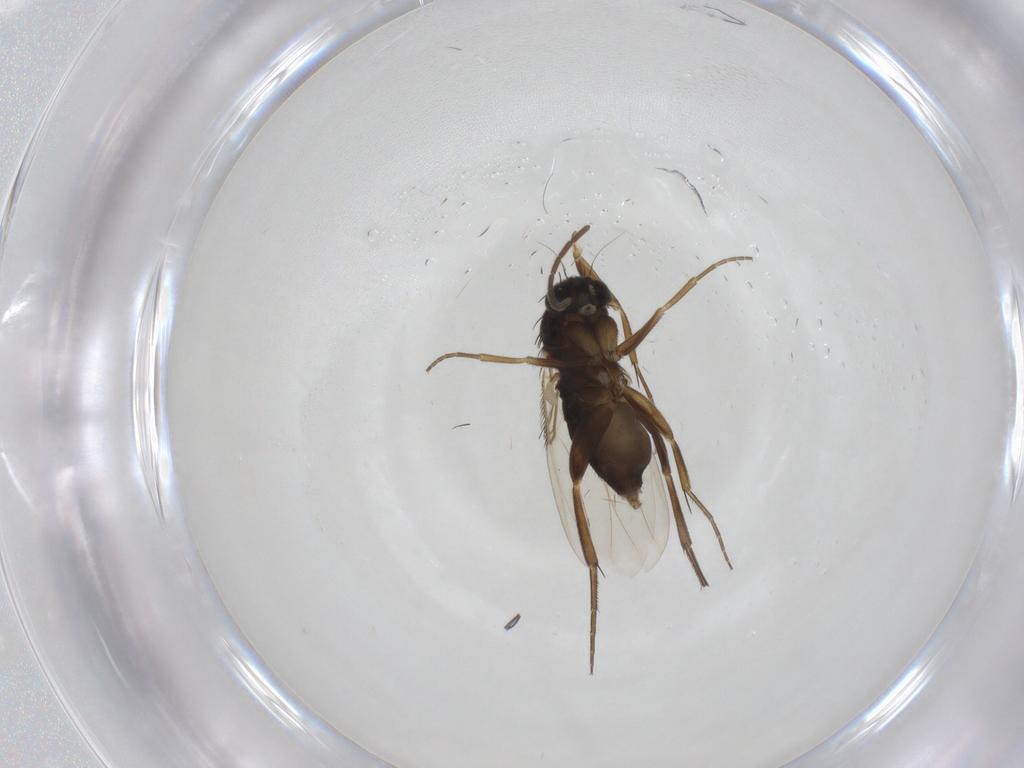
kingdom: Animalia
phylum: Arthropoda
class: Insecta
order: Diptera
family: Phoridae
